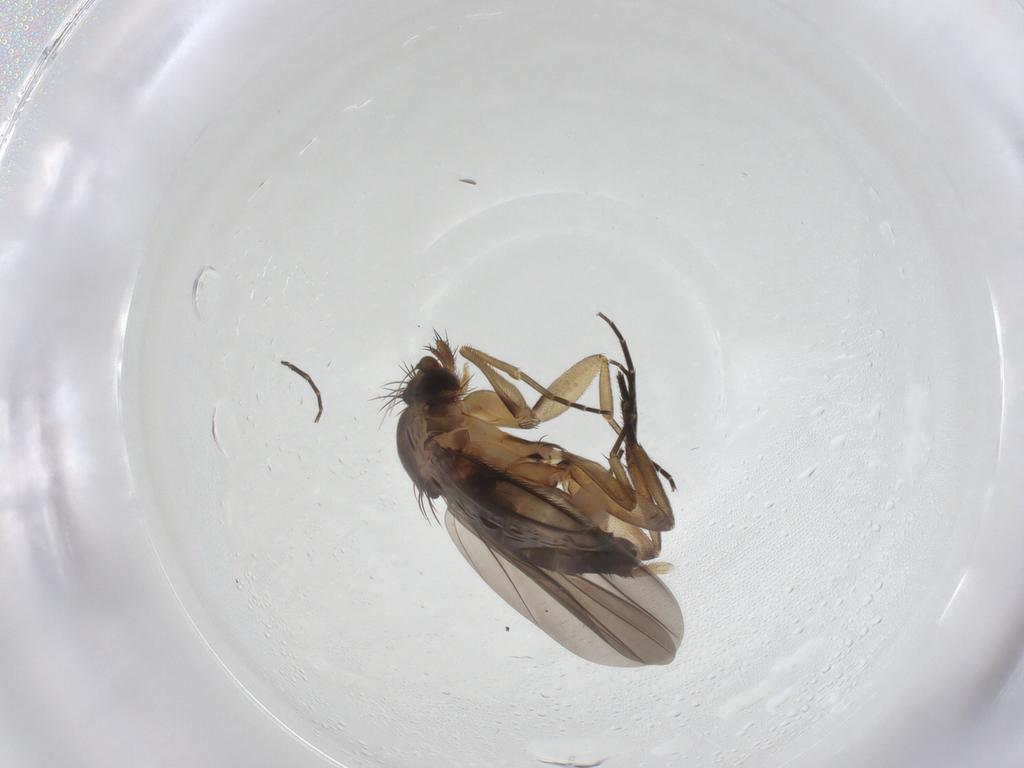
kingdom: Animalia
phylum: Arthropoda
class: Insecta
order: Diptera
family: Phoridae
